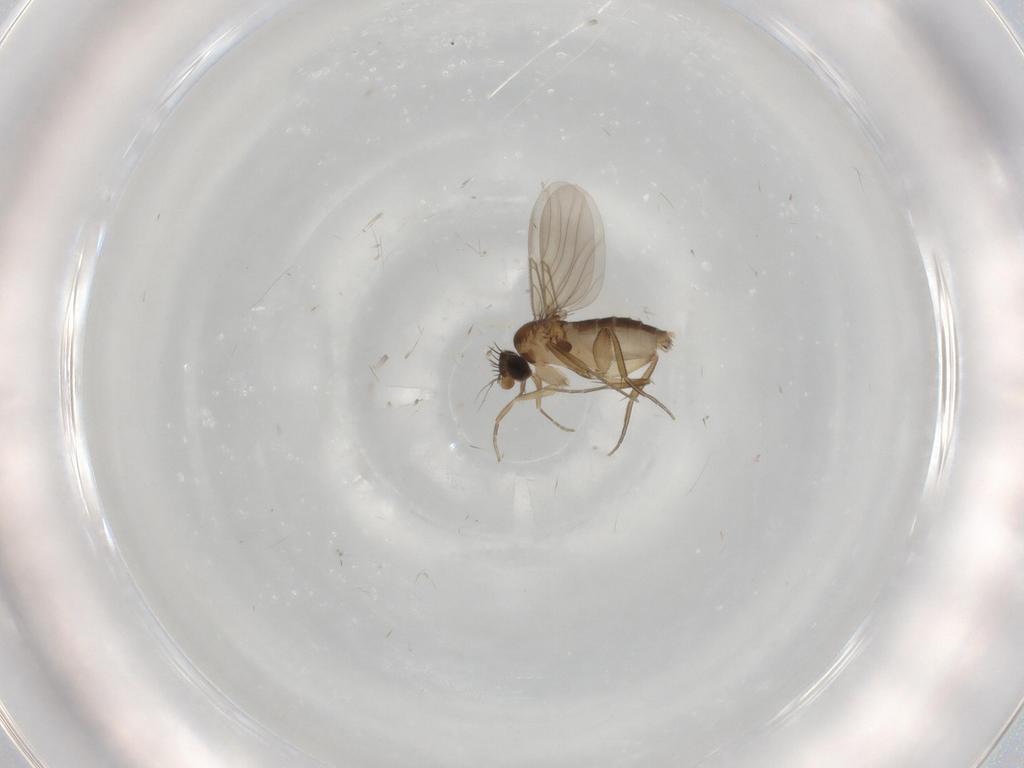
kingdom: Animalia
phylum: Arthropoda
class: Insecta
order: Diptera
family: Phoridae
